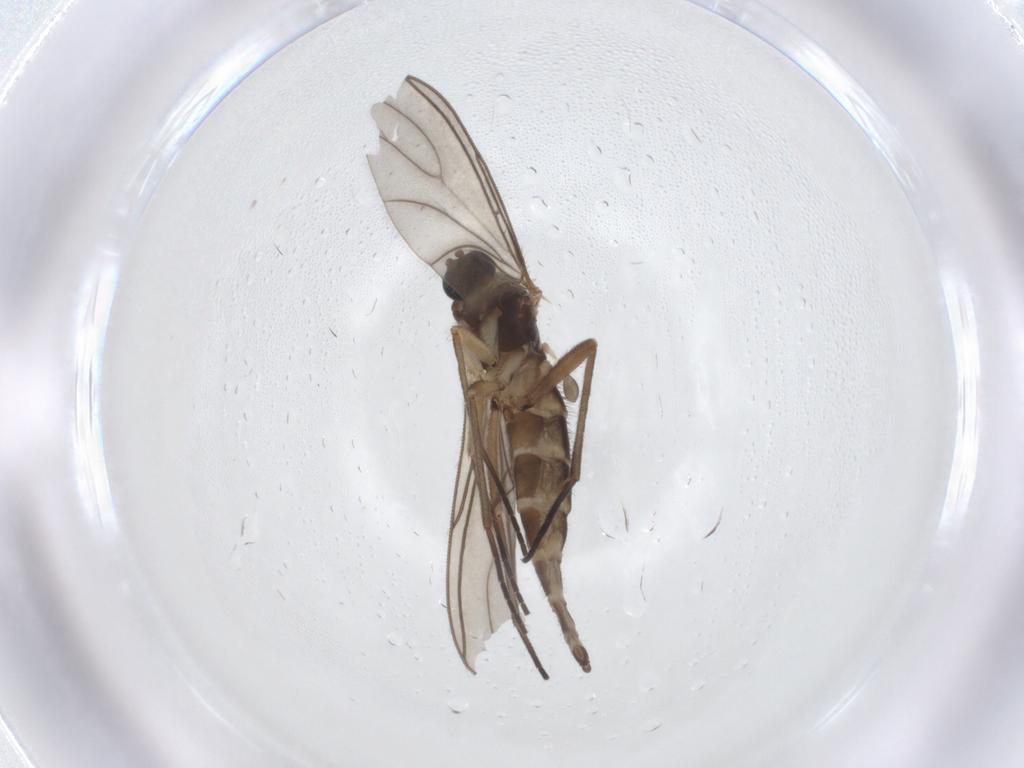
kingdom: Animalia
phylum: Arthropoda
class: Insecta
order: Diptera
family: Sciaridae
